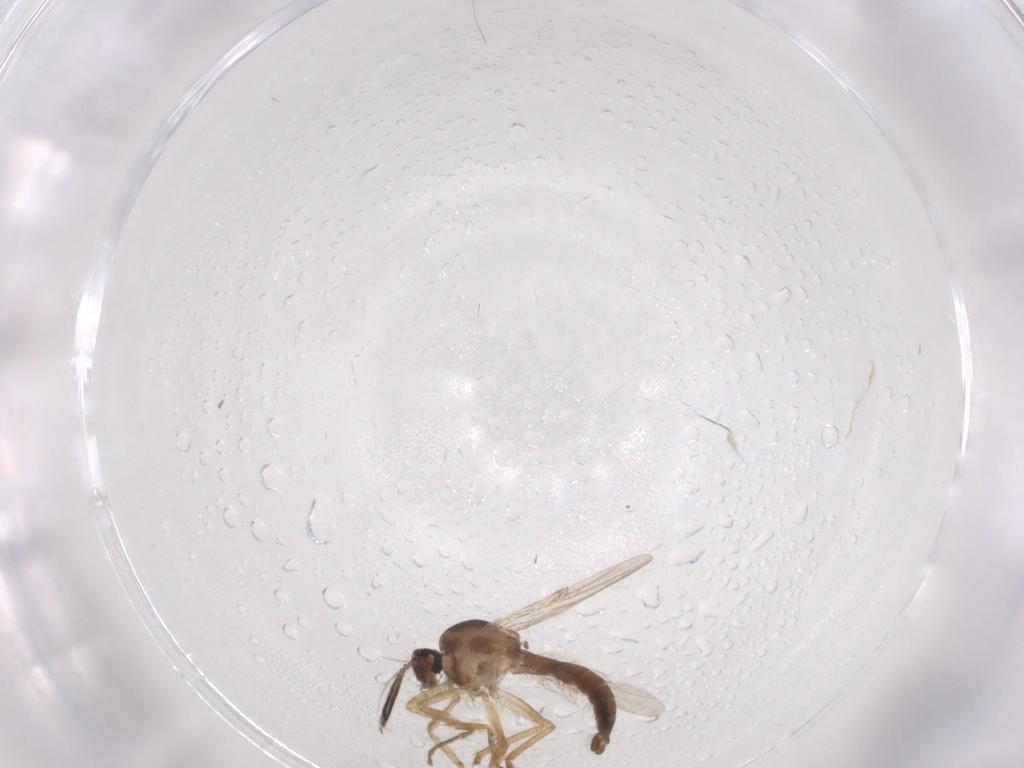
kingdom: Animalia
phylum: Arthropoda
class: Insecta
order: Diptera
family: Ceratopogonidae
